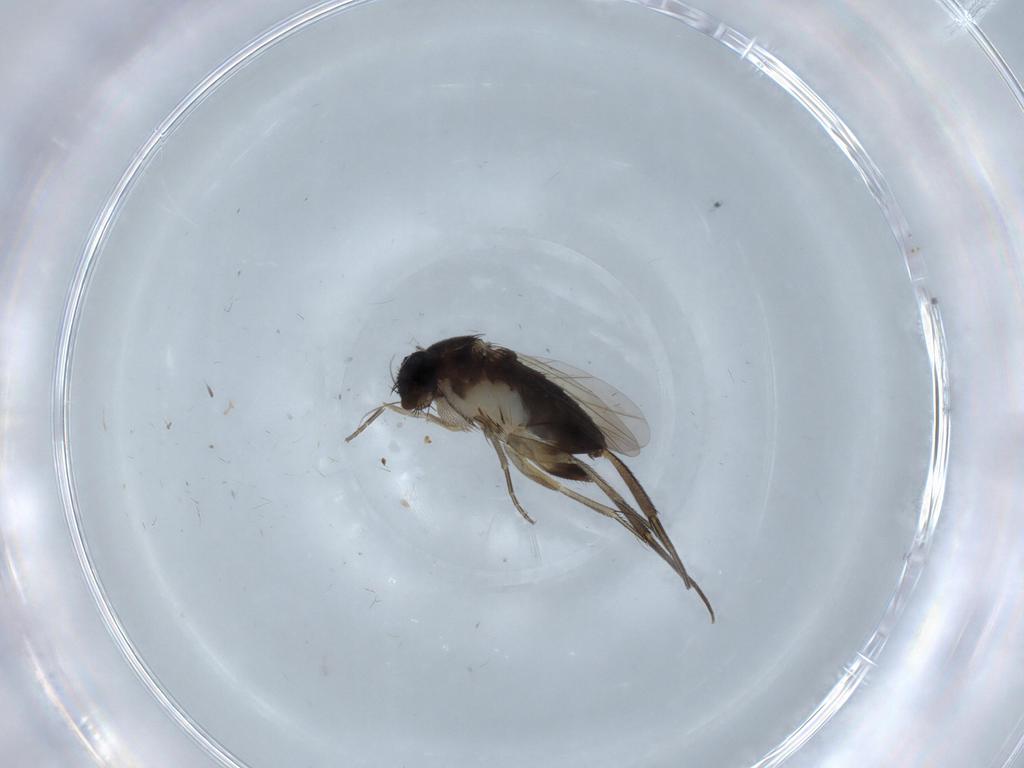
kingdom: Animalia
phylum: Arthropoda
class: Insecta
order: Diptera
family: Phoridae
